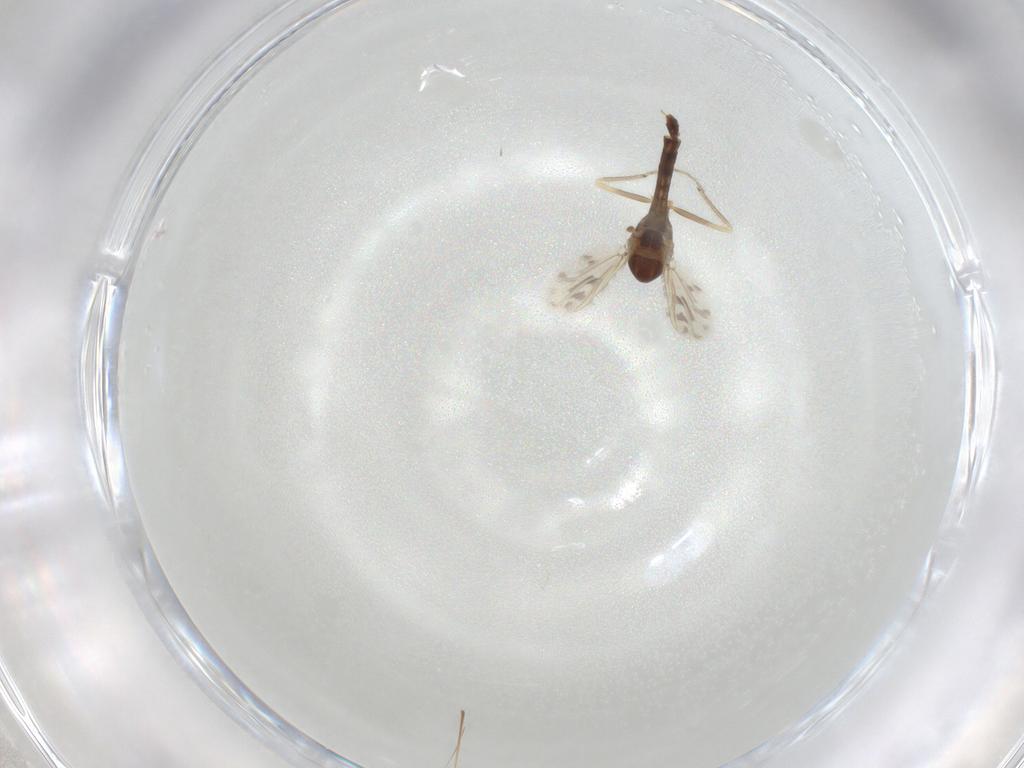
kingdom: Animalia
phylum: Arthropoda
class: Insecta
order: Diptera
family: Chironomidae
